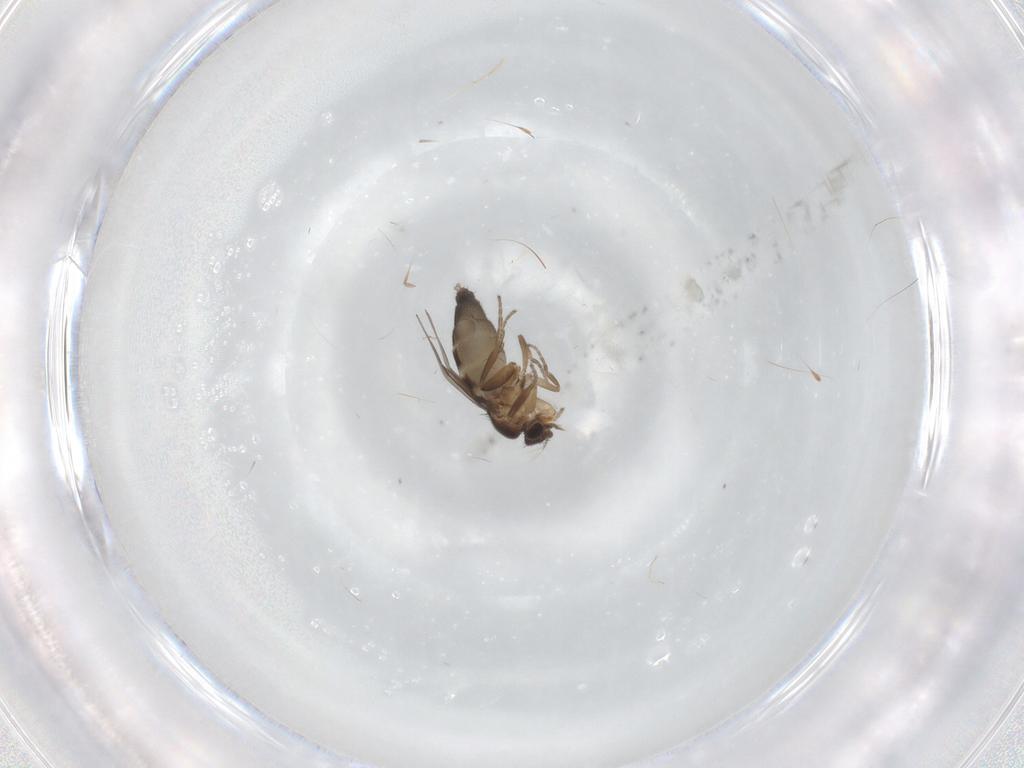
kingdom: Animalia
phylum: Arthropoda
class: Insecta
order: Diptera
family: Phoridae
